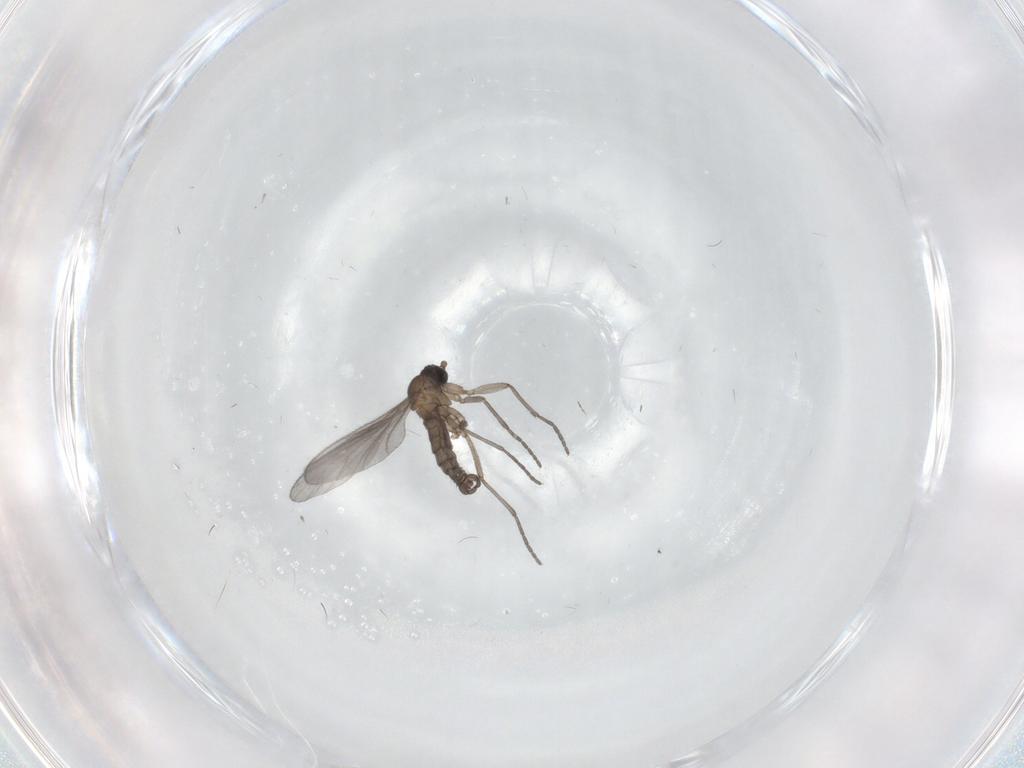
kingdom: Animalia
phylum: Arthropoda
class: Insecta
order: Diptera
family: Sciaridae
